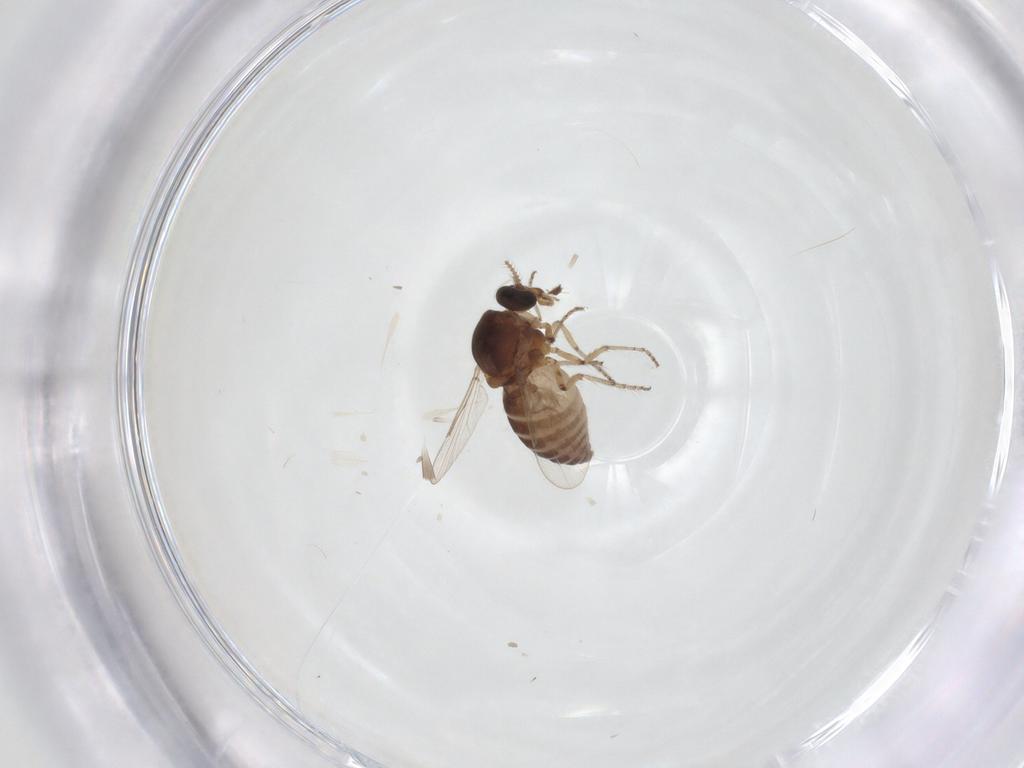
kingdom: Animalia
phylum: Arthropoda
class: Insecta
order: Diptera
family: Ceratopogonidae
